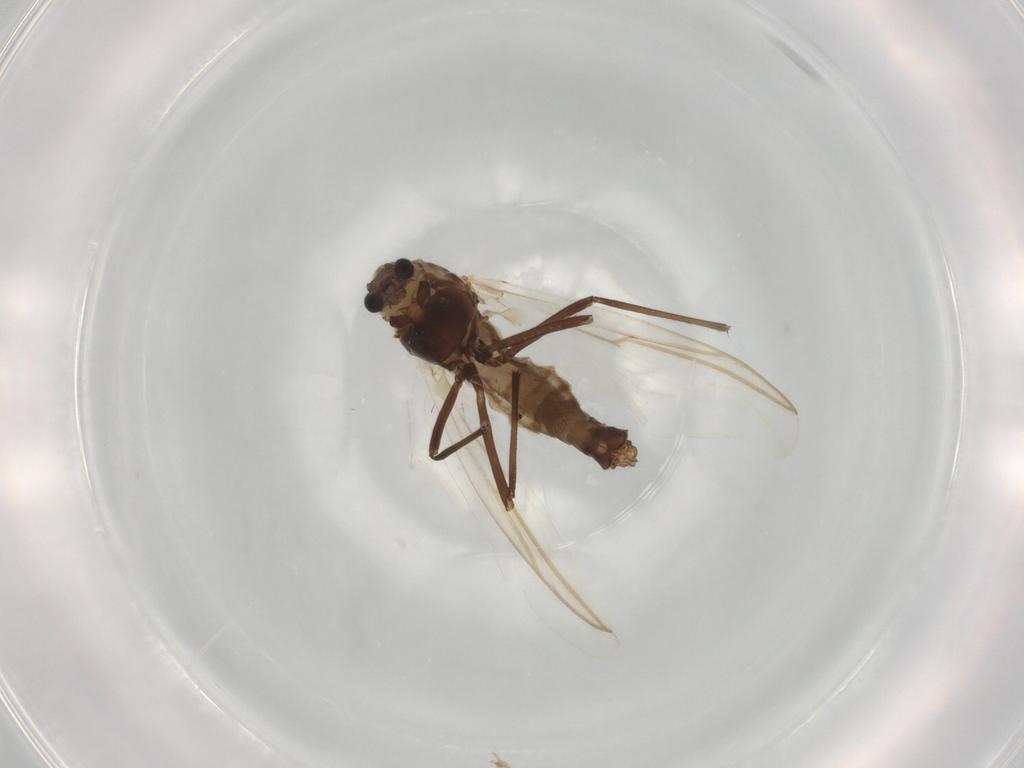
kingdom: Animalia
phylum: Arthropoda
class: Insecta
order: Diptera
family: Chironomidae
